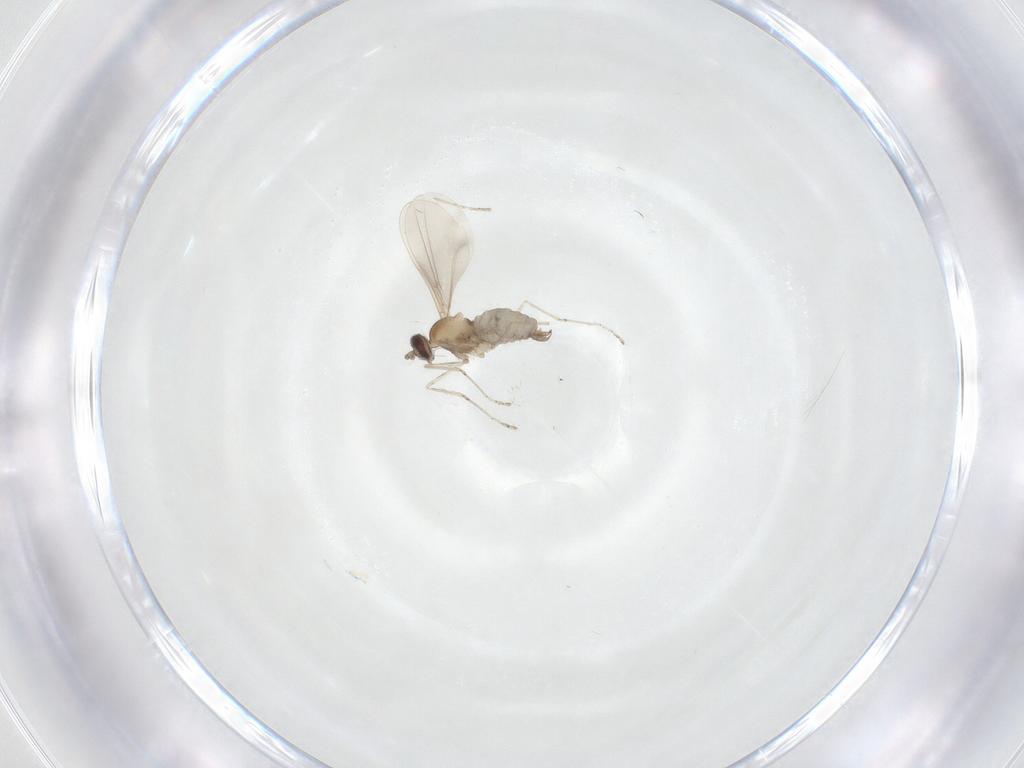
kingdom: Animalia
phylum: Arthropoda
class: Insecta
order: Diptera
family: Cecidomyiidae
